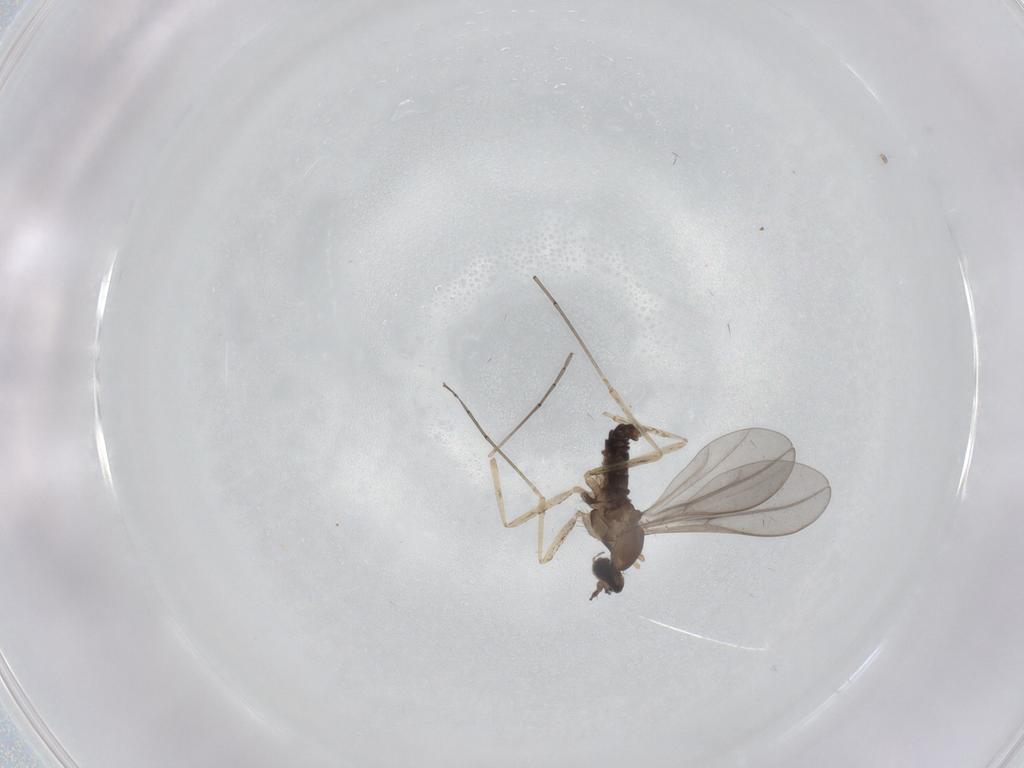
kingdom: Animalia
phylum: Arthropoda
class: Insecta
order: Diptera
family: Cecidomyiidae
